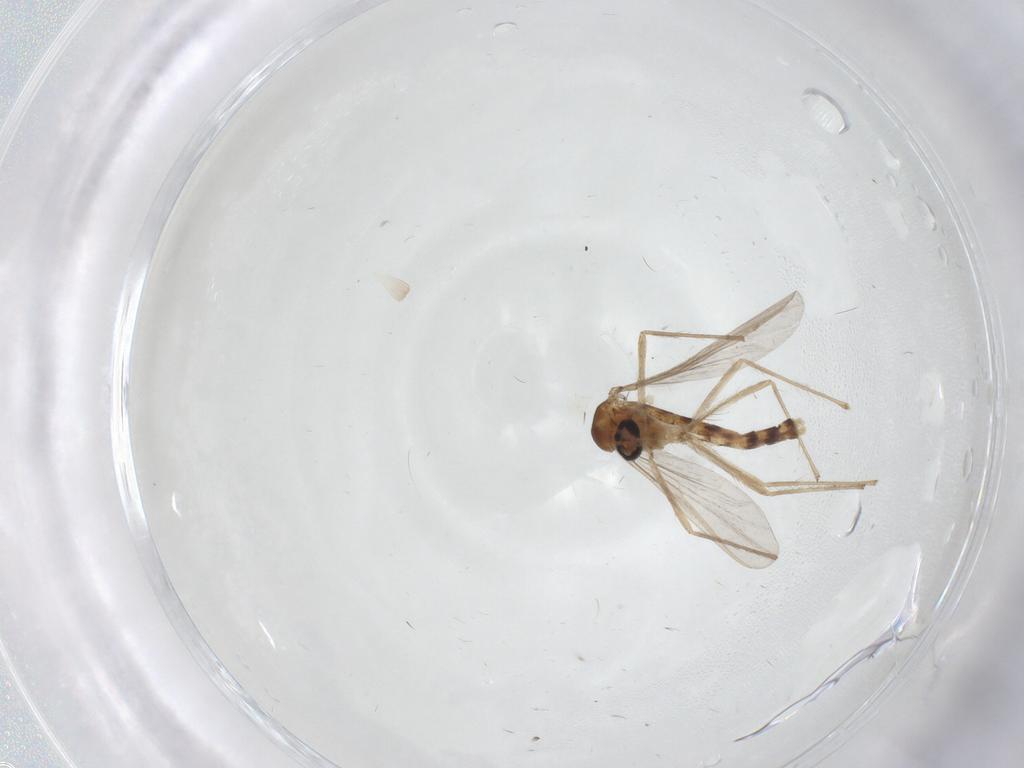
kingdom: Animalia
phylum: Arthropoda
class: Insecta
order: Diptera
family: Chironomidae
